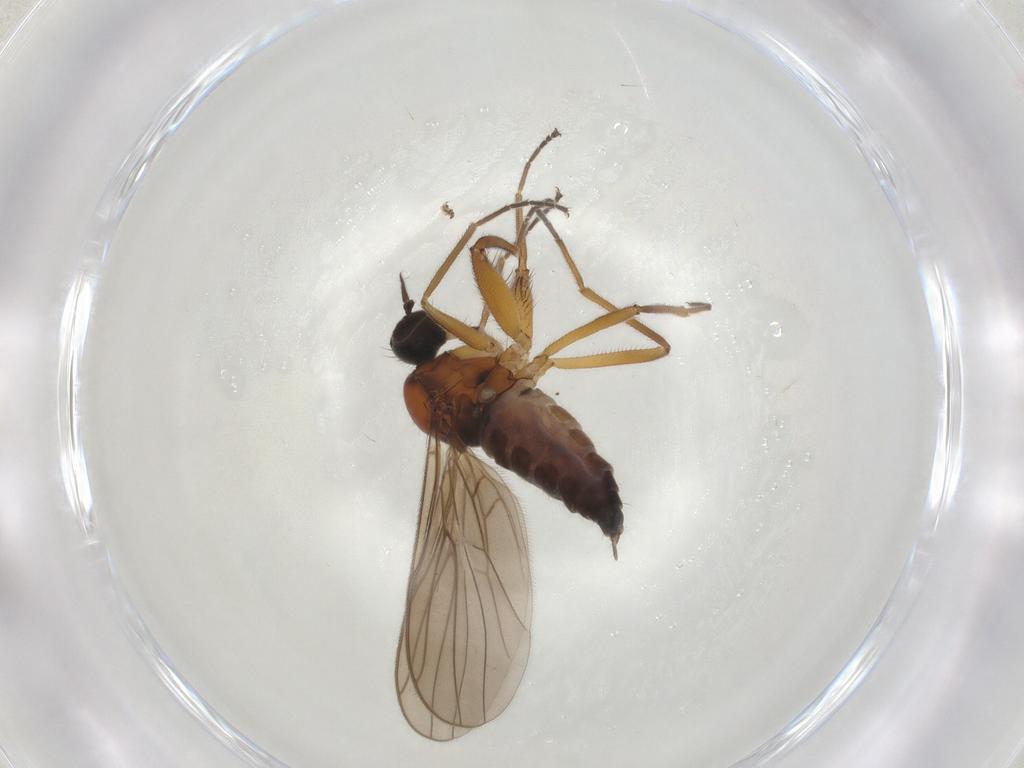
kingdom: Animalia
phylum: Arthropoda
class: Insecta
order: Diptera
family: Hybotidae
